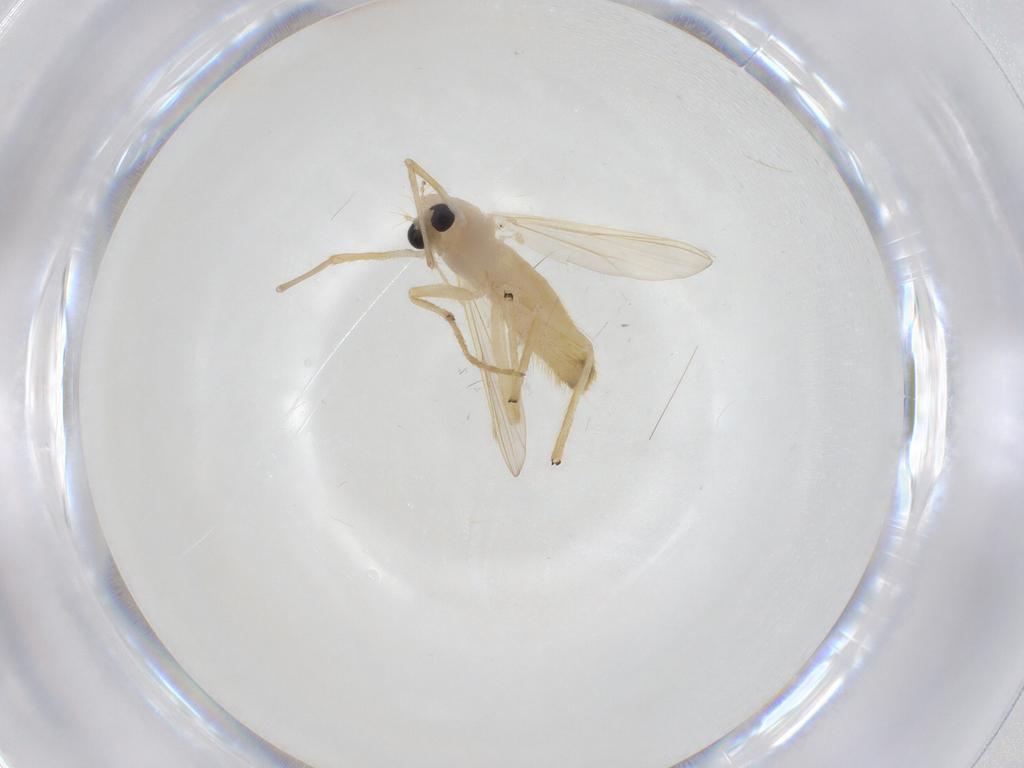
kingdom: Animalia
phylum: Arthropoda
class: Insecta
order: Diptera
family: Chironomidae
